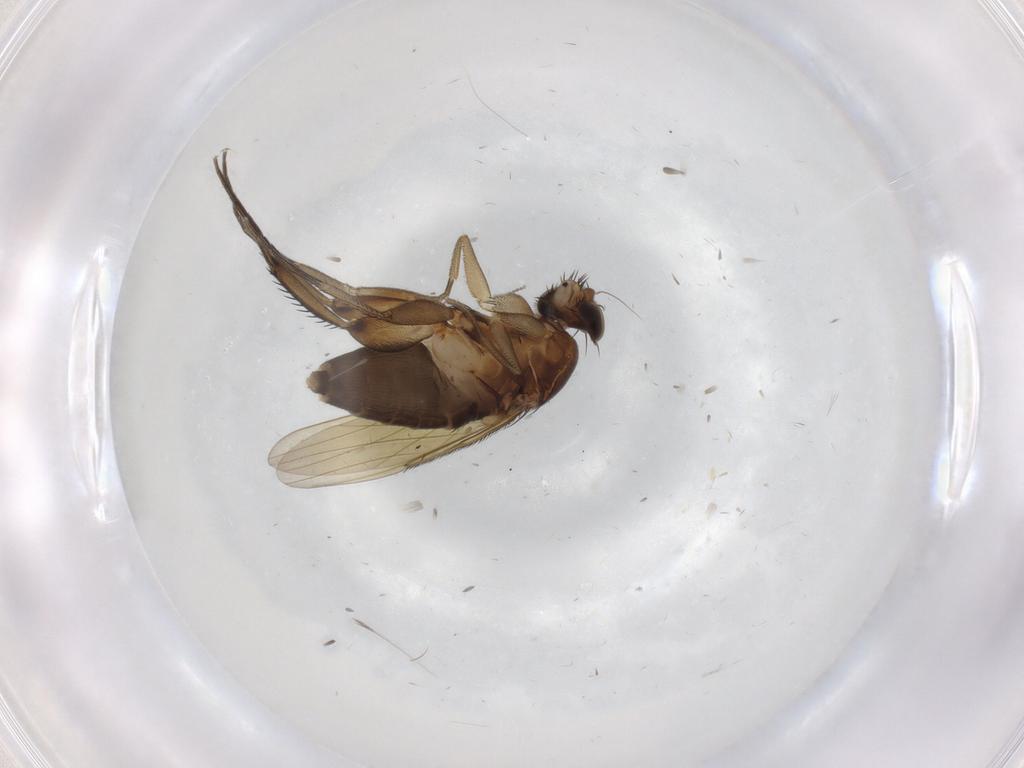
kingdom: Animalia
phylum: Arthropoda
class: Insecta
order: Diptera
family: Phoridae
